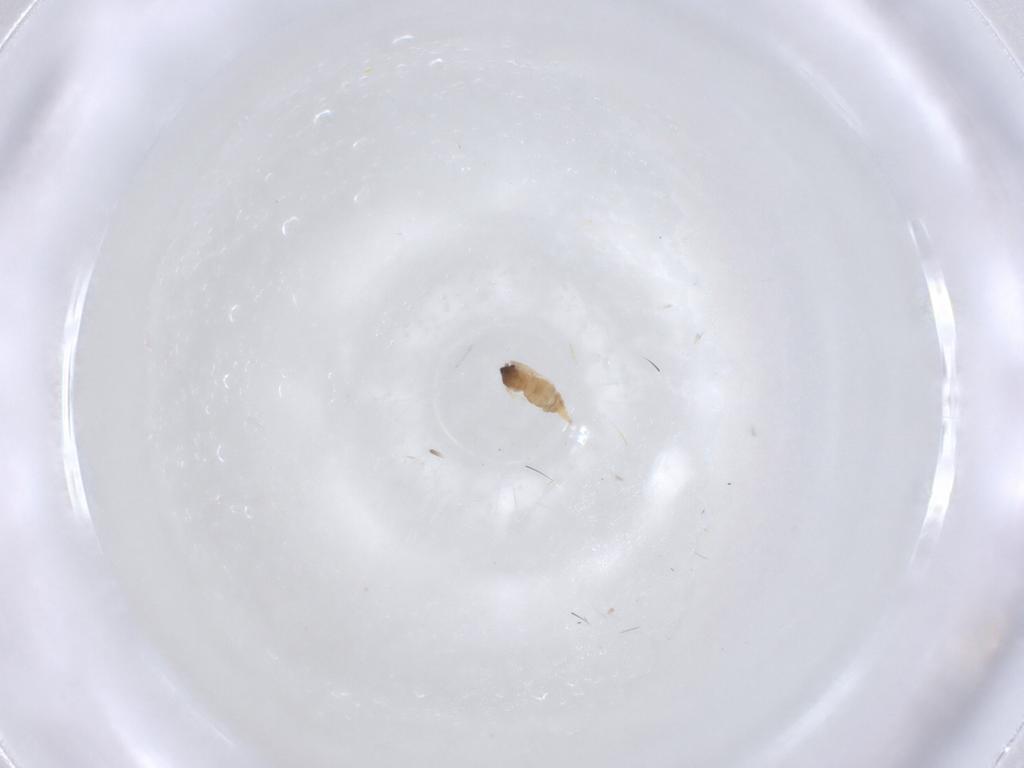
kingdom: Animalia
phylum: Arthropoda
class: Insecta
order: Diptera
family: Cecidomyiidae
